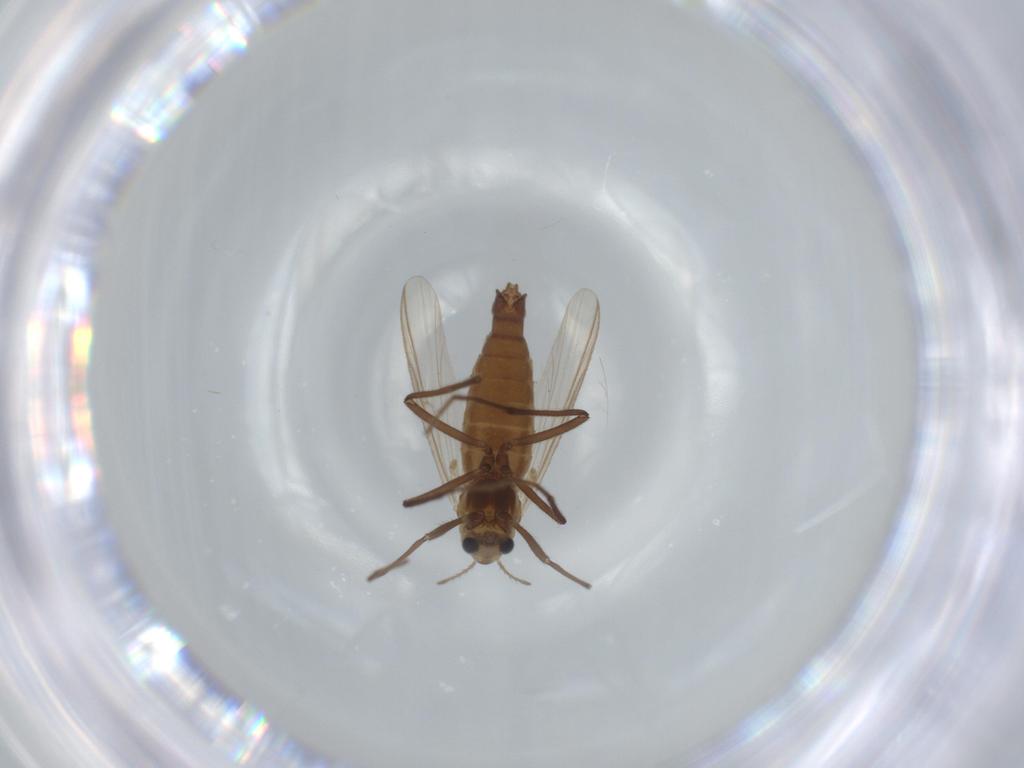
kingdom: Animalia
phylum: Arthropoda
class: Insecta
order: Diptera
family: Chironomidae
